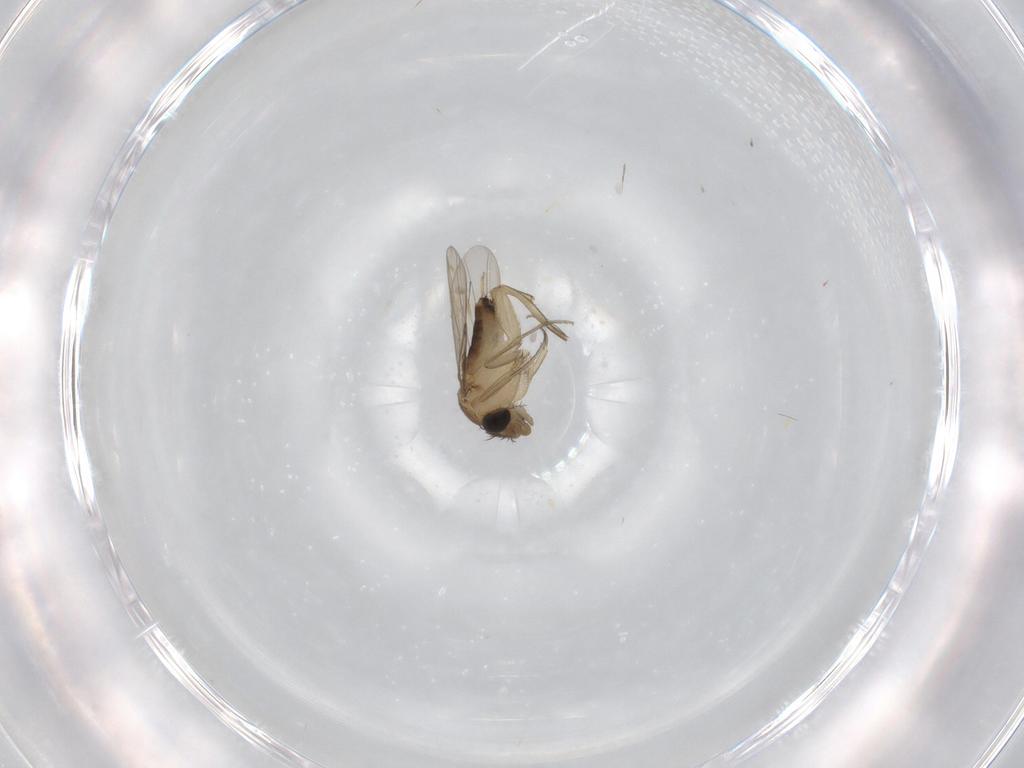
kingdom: Animalia
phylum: Arthropoda
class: Insecta
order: Diptera
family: Phoridae
